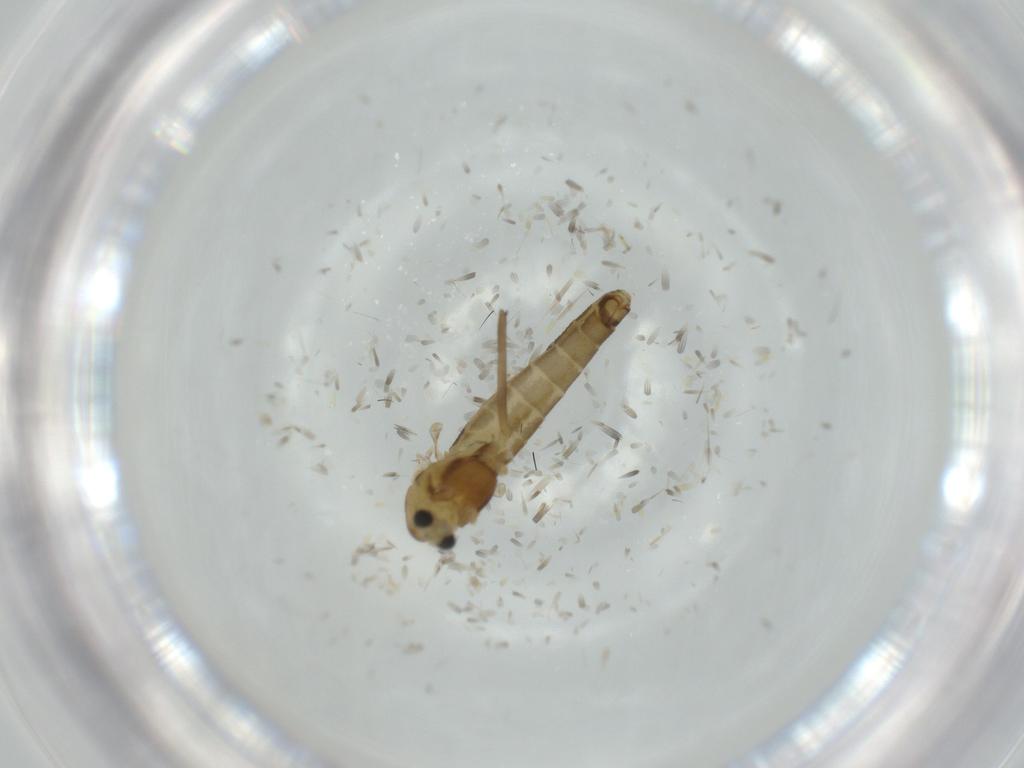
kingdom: Animalia
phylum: Arthropoda
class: Insecta
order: Diptera
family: Chironomidae
